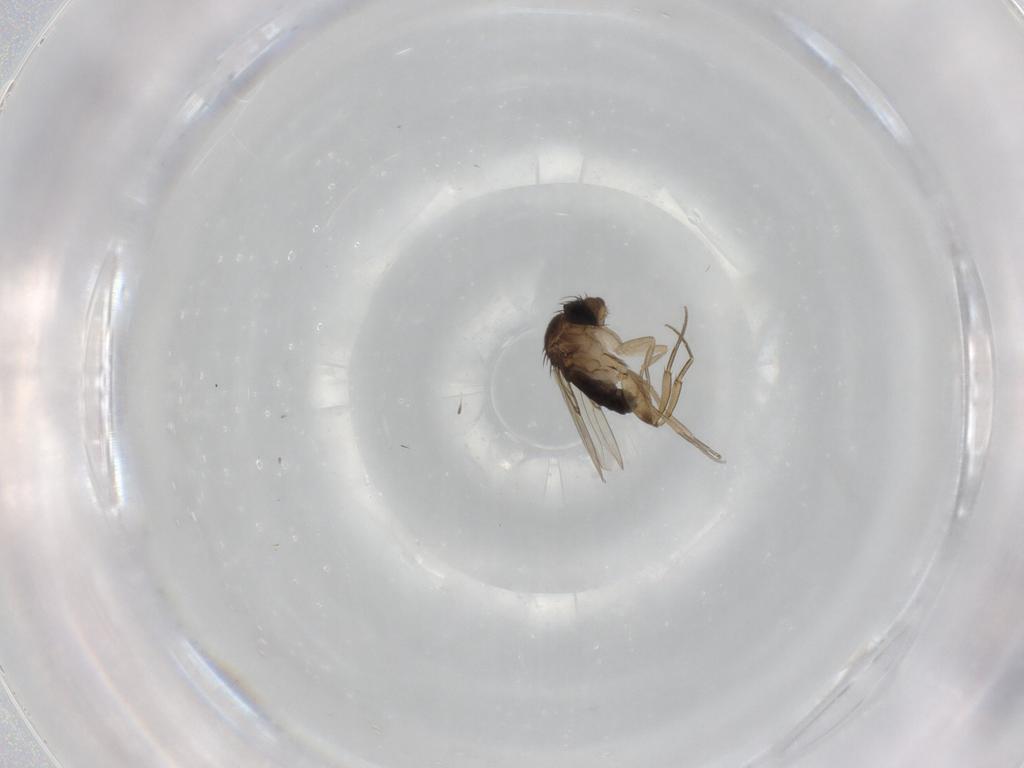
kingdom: Animalia
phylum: Arthropoda
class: Insecta
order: Diptera
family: Phoridae
